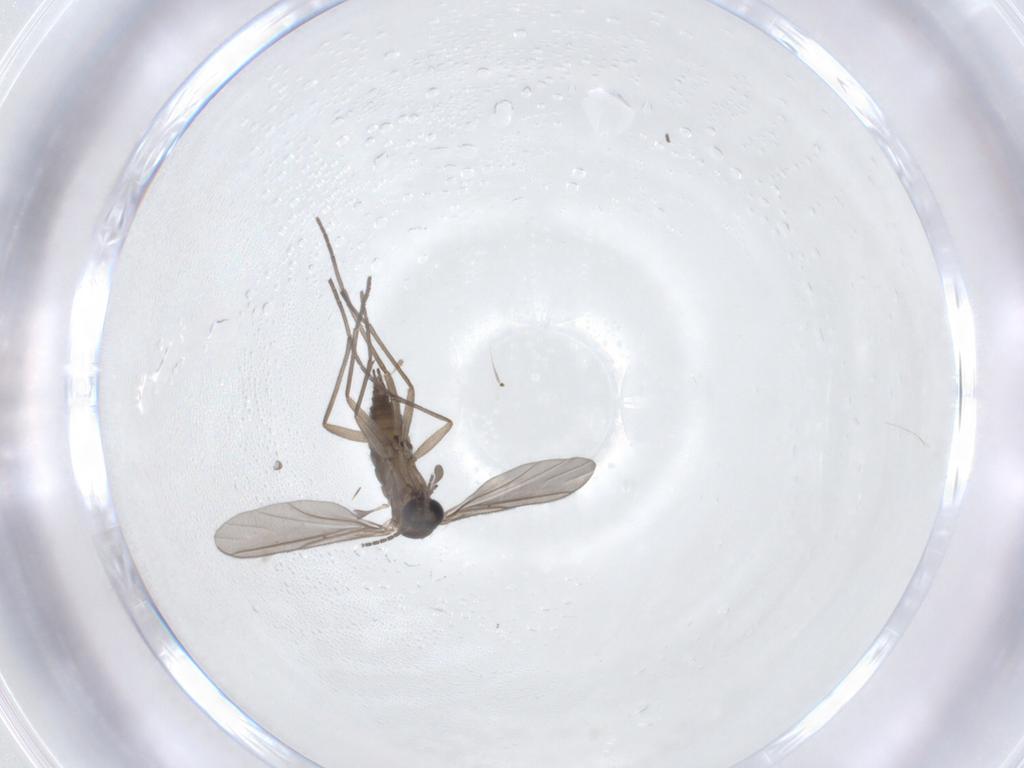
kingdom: Animalia
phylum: Arthropoda
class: Insecta
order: Diptera
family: Sciaridae
